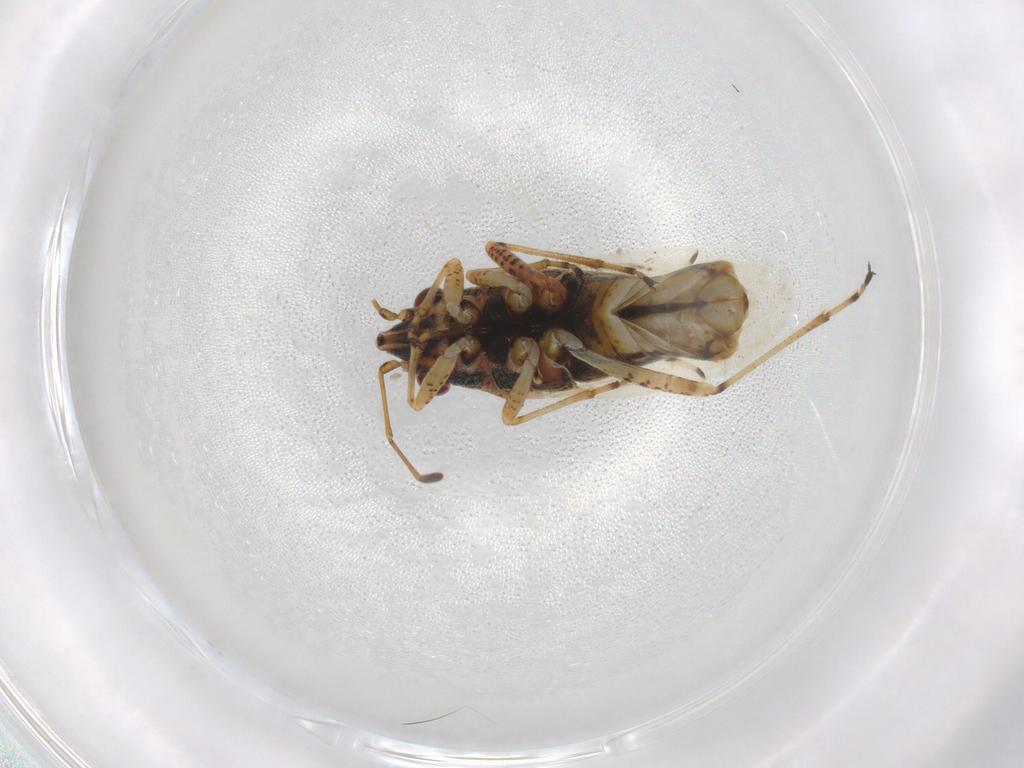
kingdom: Animalia
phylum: Arthropoda
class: Insecta
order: Hemiptera
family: Lygaeidae
